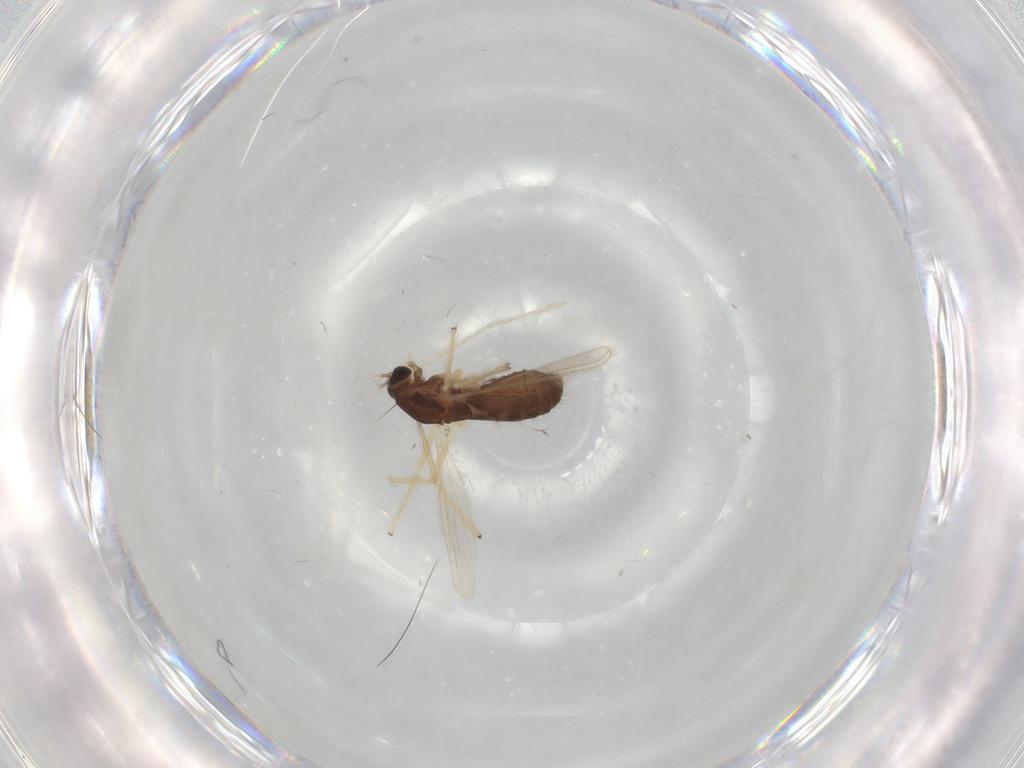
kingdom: Animalia
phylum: Arthropoda
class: Insecta
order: Diptera
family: Chironomidae
